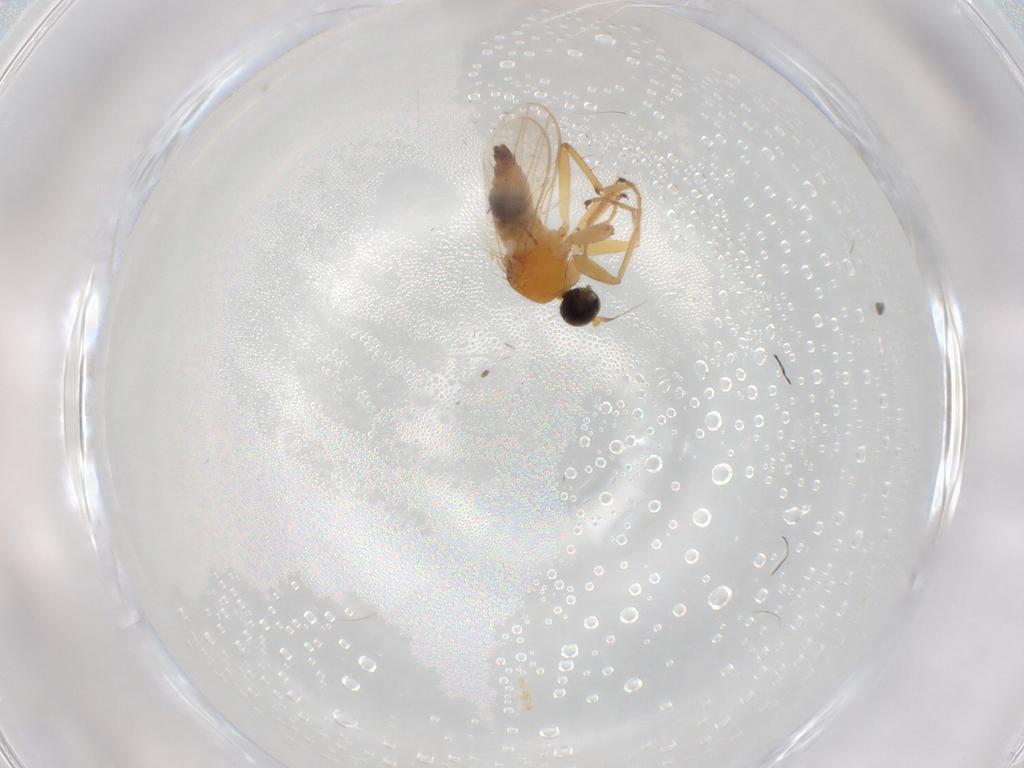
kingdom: Animalia
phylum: Arthropoda
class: Insecta
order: Diptera
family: Hybotidae
